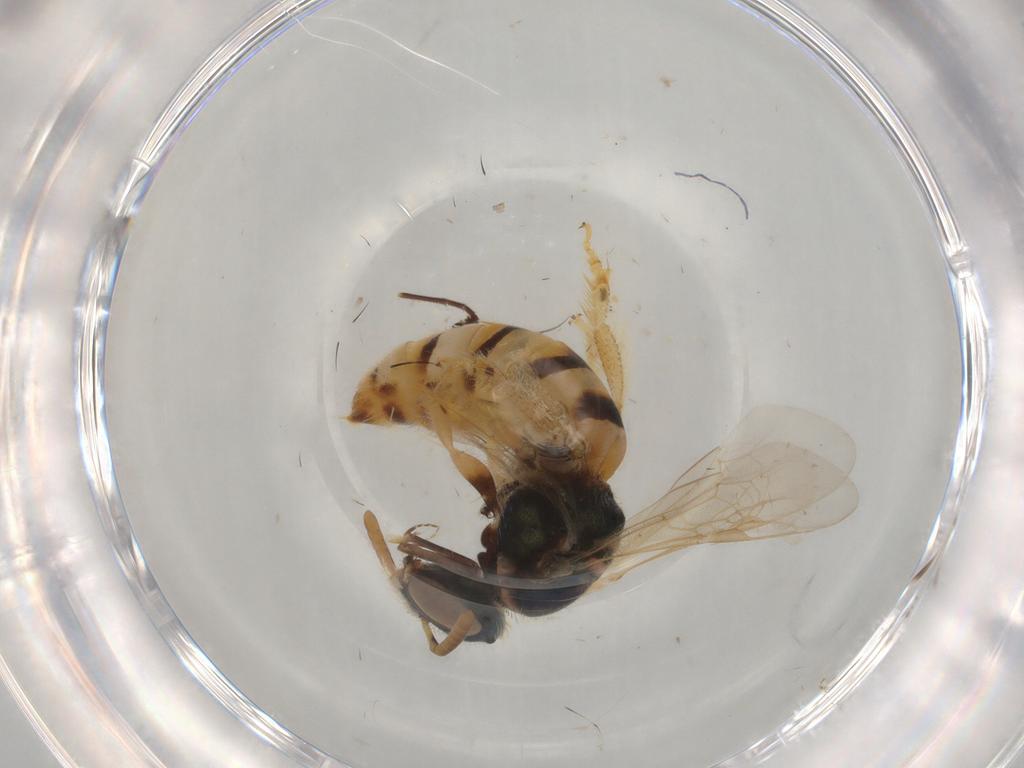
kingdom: Animalia
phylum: Arthropoda
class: Insecta
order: Hymenoptera
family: Halictidae
